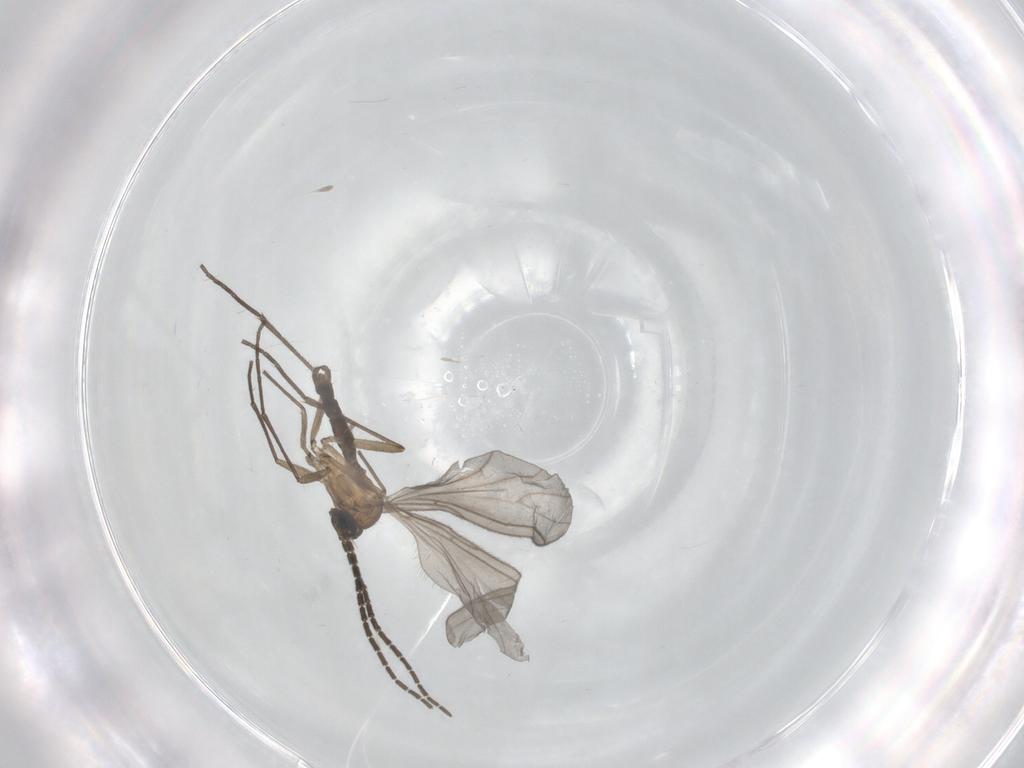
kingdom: Animalia
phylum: Arthropoda
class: Insecta
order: Diptera
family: Sciaridae
